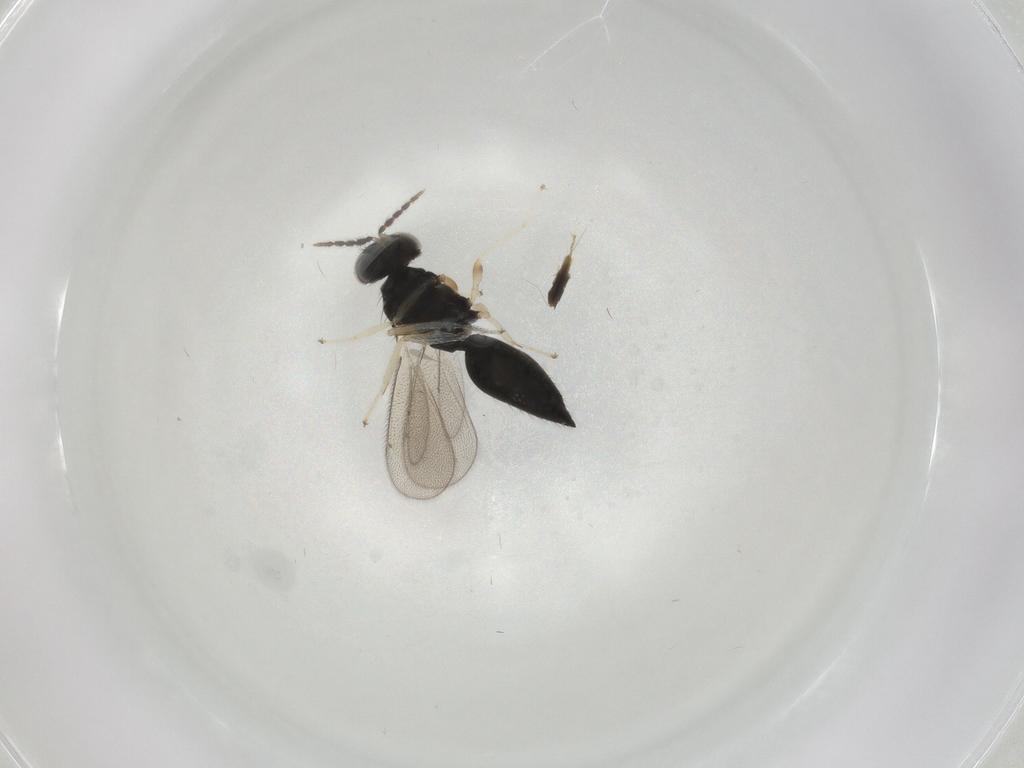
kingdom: Animalia
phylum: Arthropoda
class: Insecta
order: Hymenoptera
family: Eulophidae
